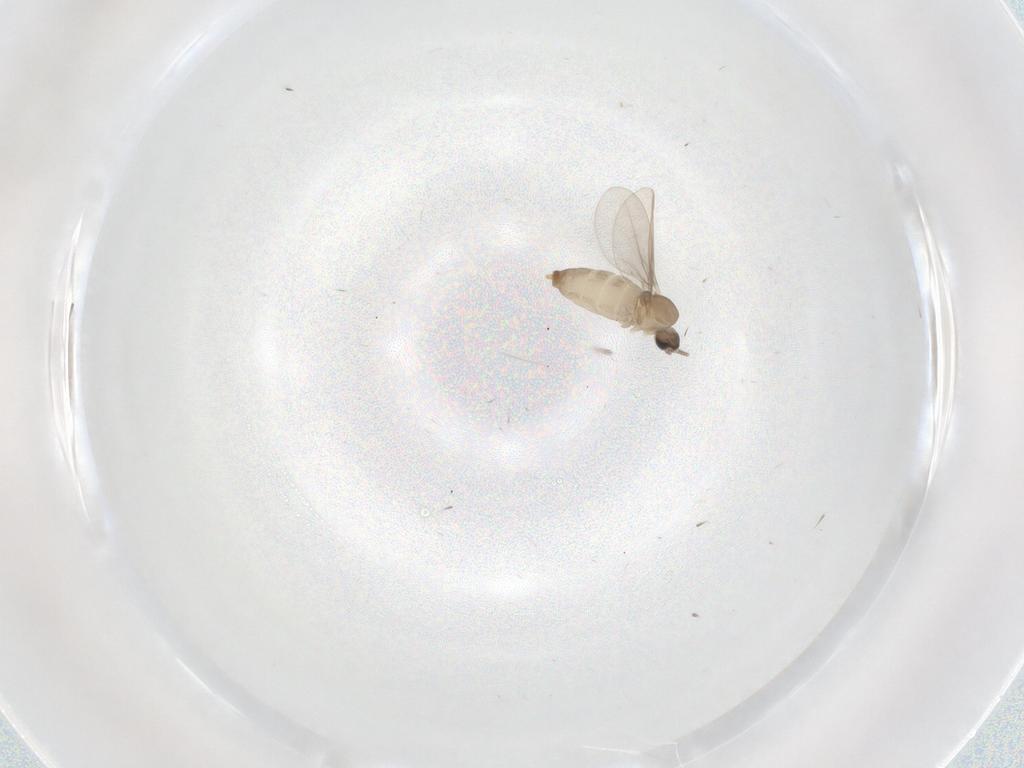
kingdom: Animalia
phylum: Arthropoda
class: Insecta
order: Diptera
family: Cecidomyiidae
